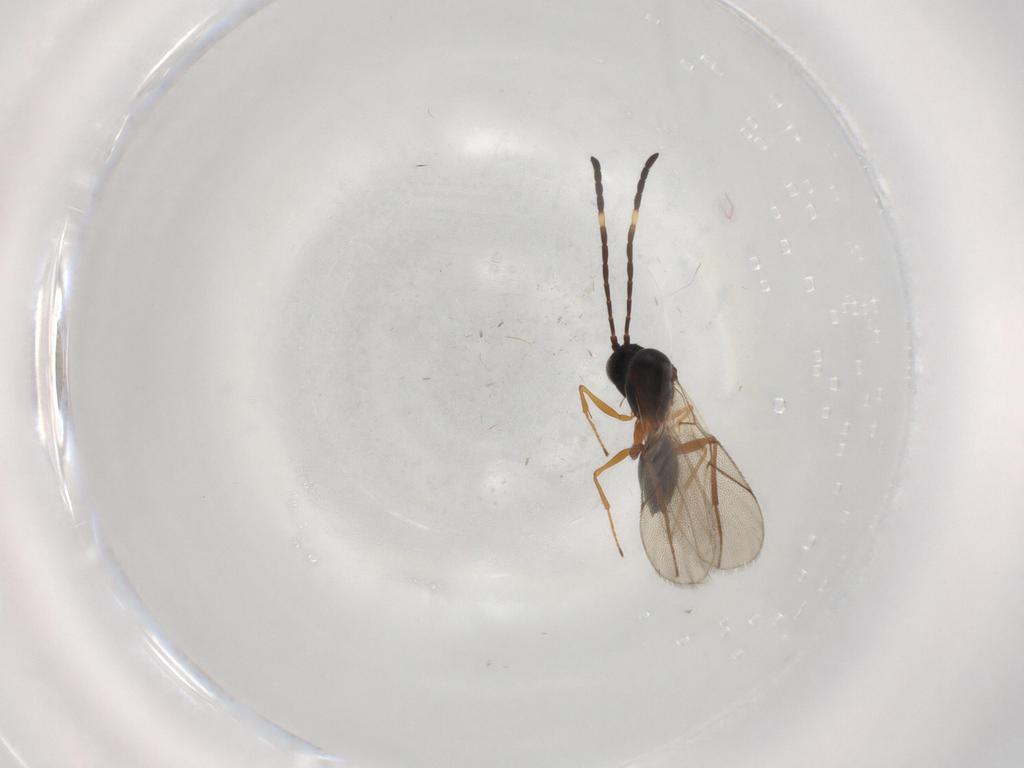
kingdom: Animalia
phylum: Arthropoda
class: Insecta
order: Hymenoptera
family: Figitidae
